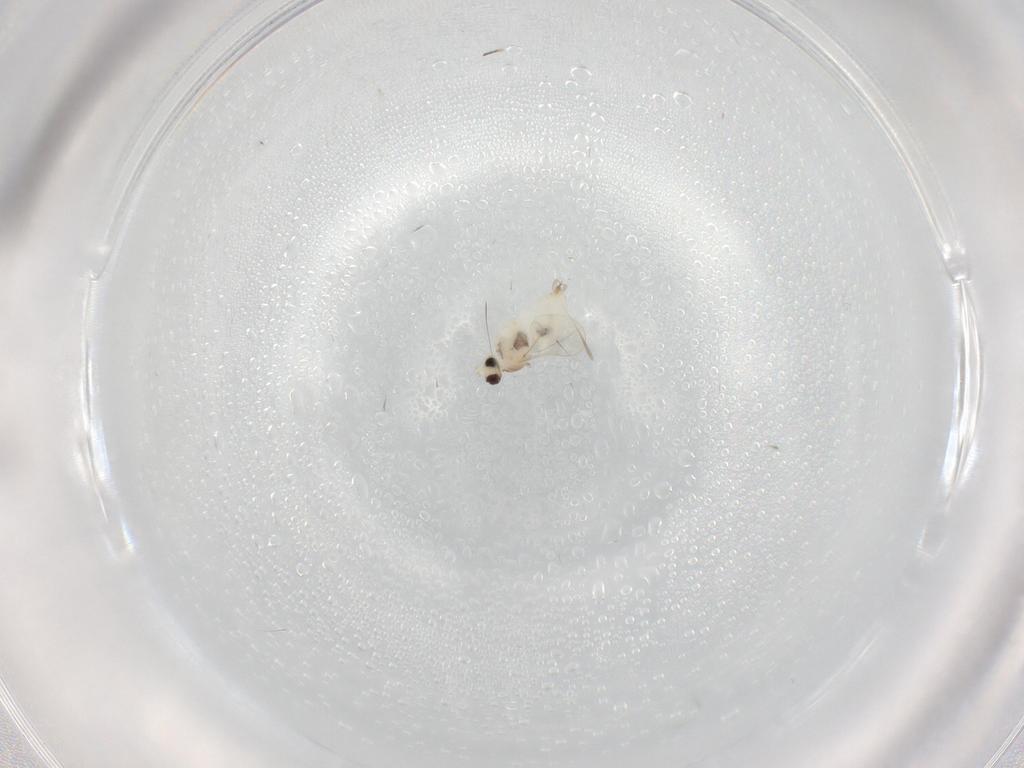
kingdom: Animalia
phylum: Arthropoda
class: Insecta
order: Diptera
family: Cecidomyiidae
